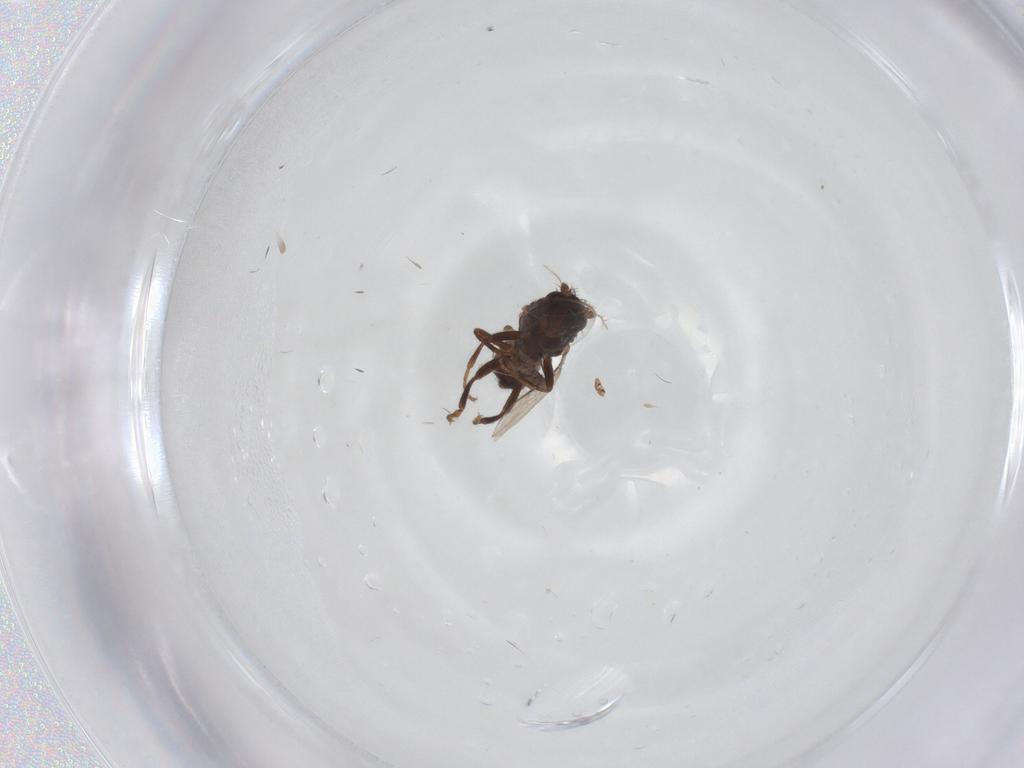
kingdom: Animalia
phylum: Arthropoda
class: Insecta
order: Diptera
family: Sphaeroceridae
